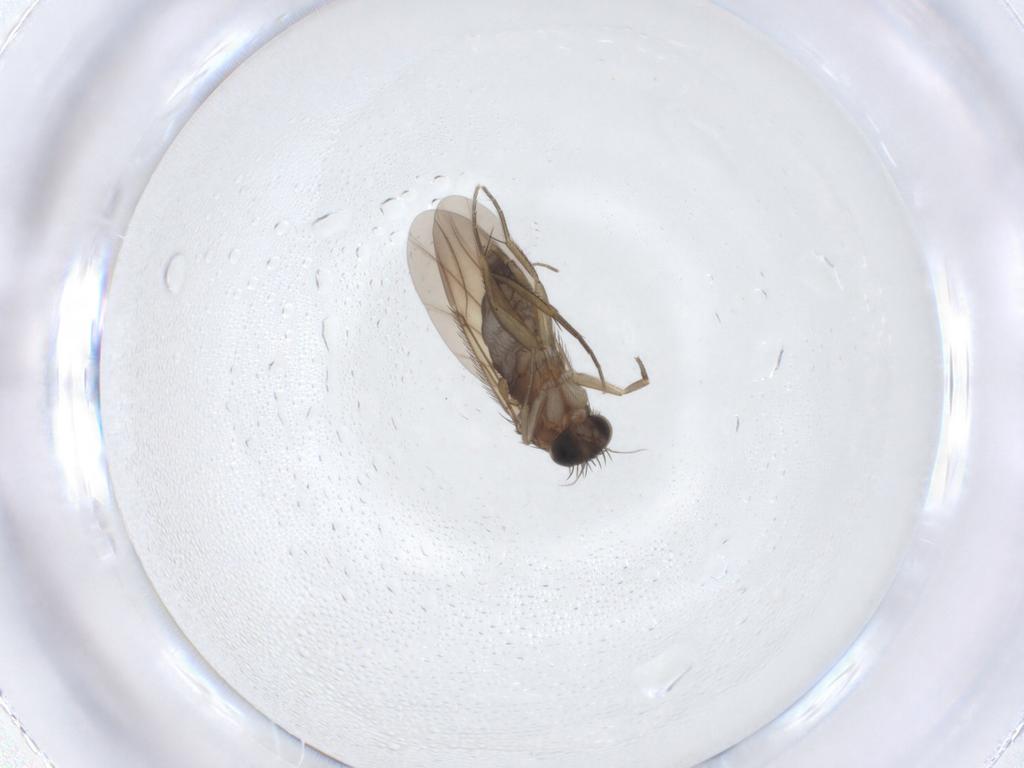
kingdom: Animalia
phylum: Arthropoda
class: Insecta
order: Diptera
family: Phoridae
